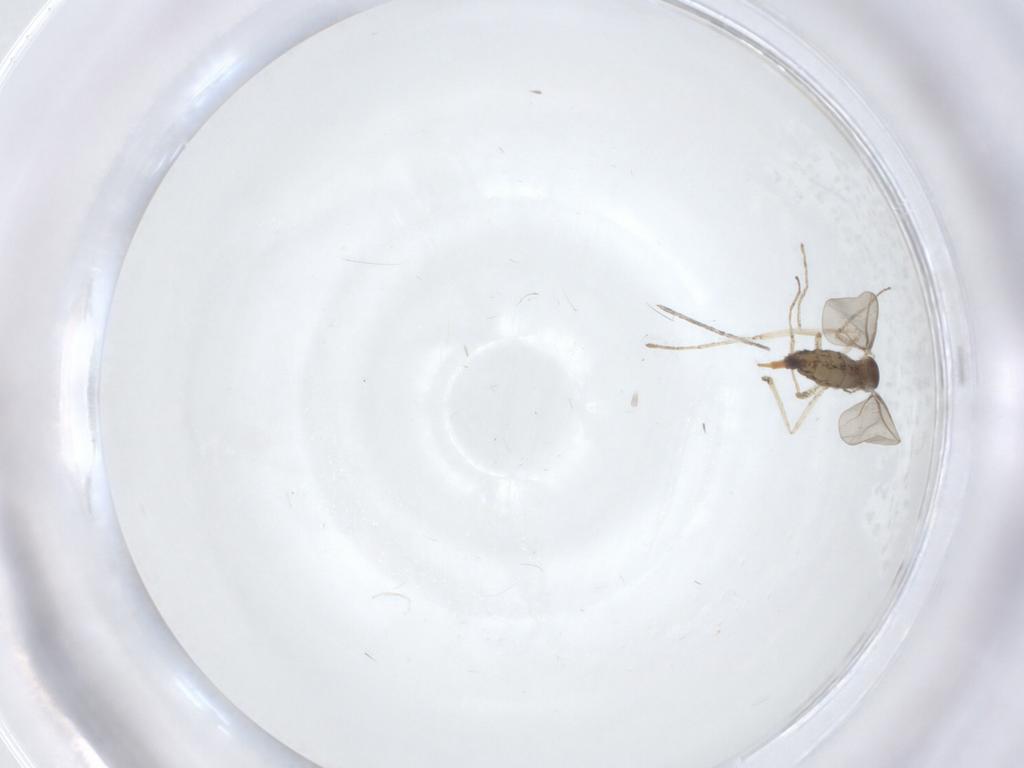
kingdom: Animalia
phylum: Arthropoda
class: Insecta
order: Diptera
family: Cecidomyiidae
